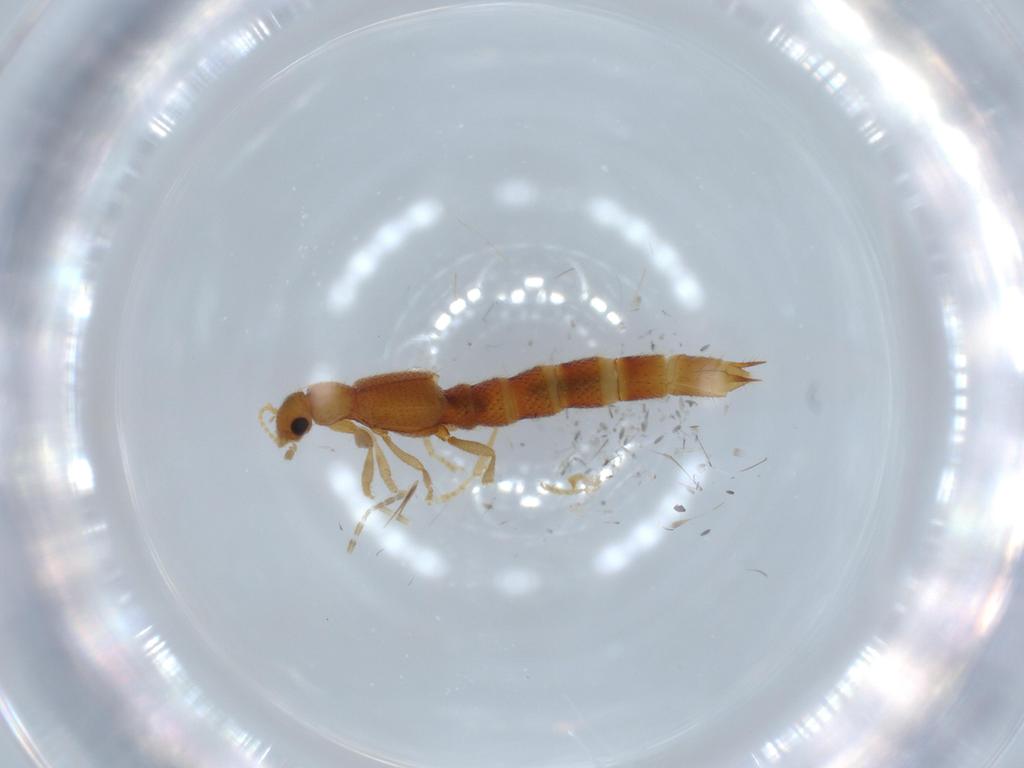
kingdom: Animalia
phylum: Arthropoda
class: Insecta
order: Coleoptera
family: Staphylinidae
